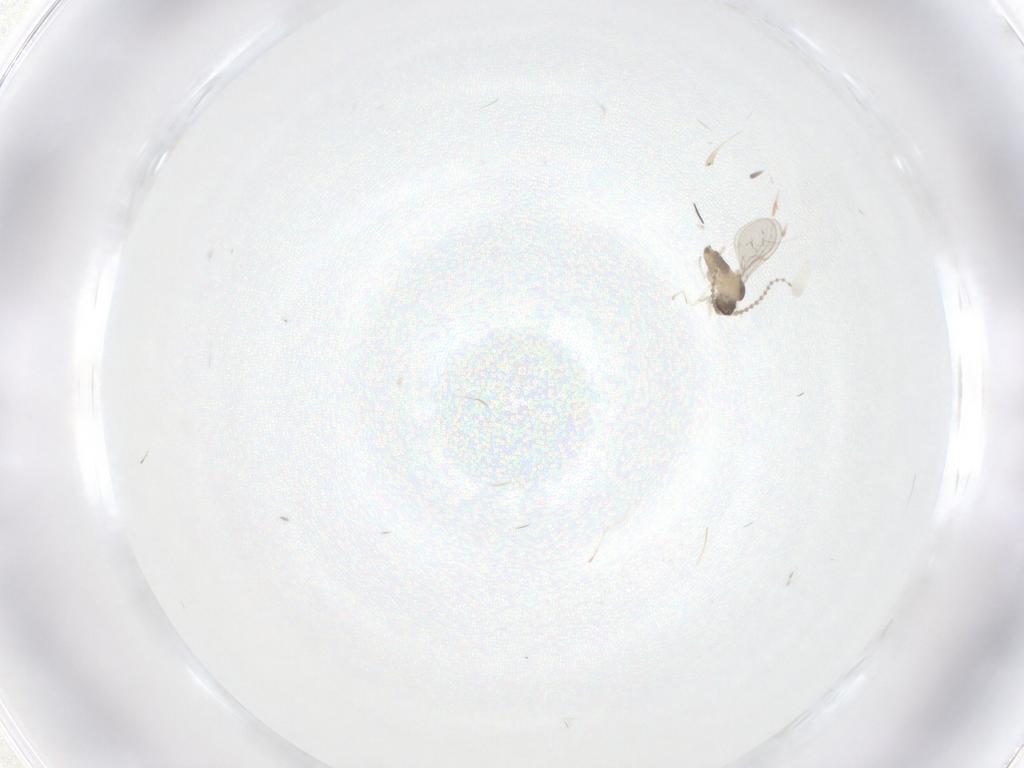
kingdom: Animalia
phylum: Arthropoda
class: Insecta
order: Diptera
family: Cecidomyiidae
